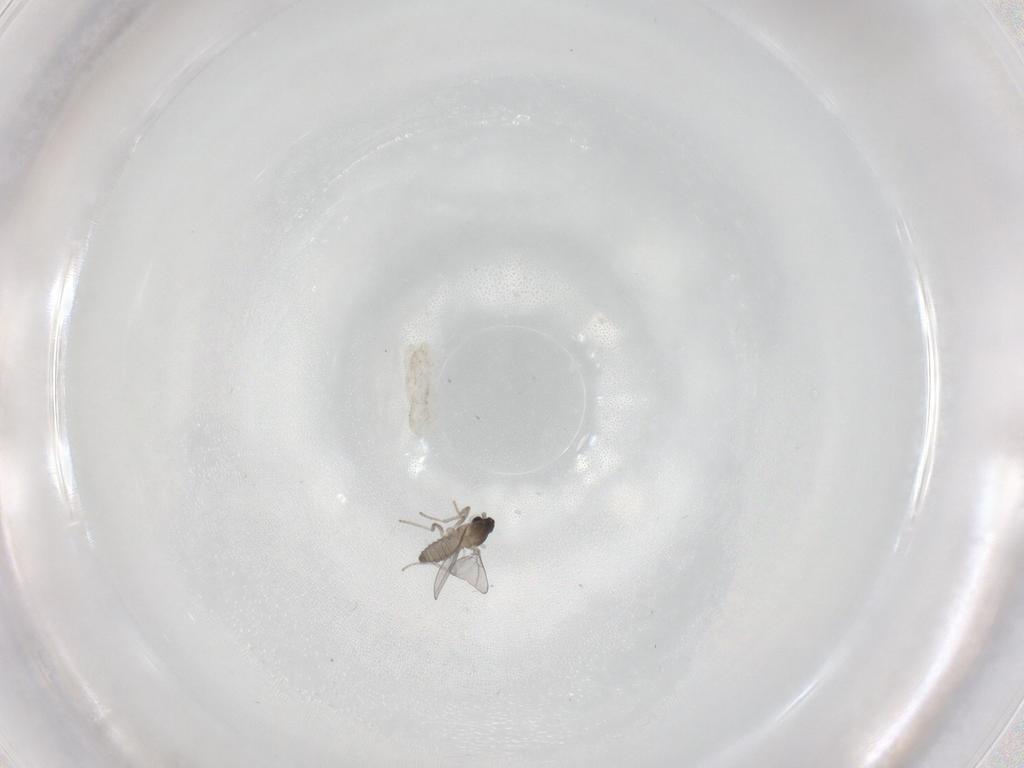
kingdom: Animalia
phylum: Arthropoda
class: Insecta
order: Diptera
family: Cecidomyiidae
